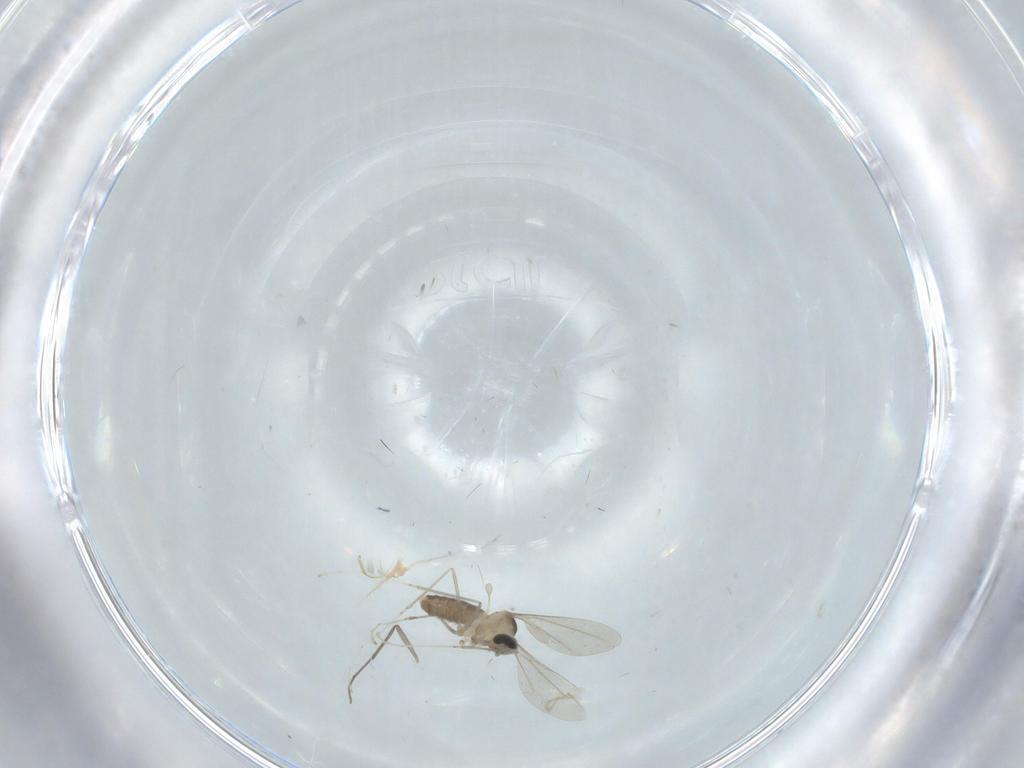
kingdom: Animalia
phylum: Arthropoda
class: Insecta
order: Diptera
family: Cecidomyiidae
